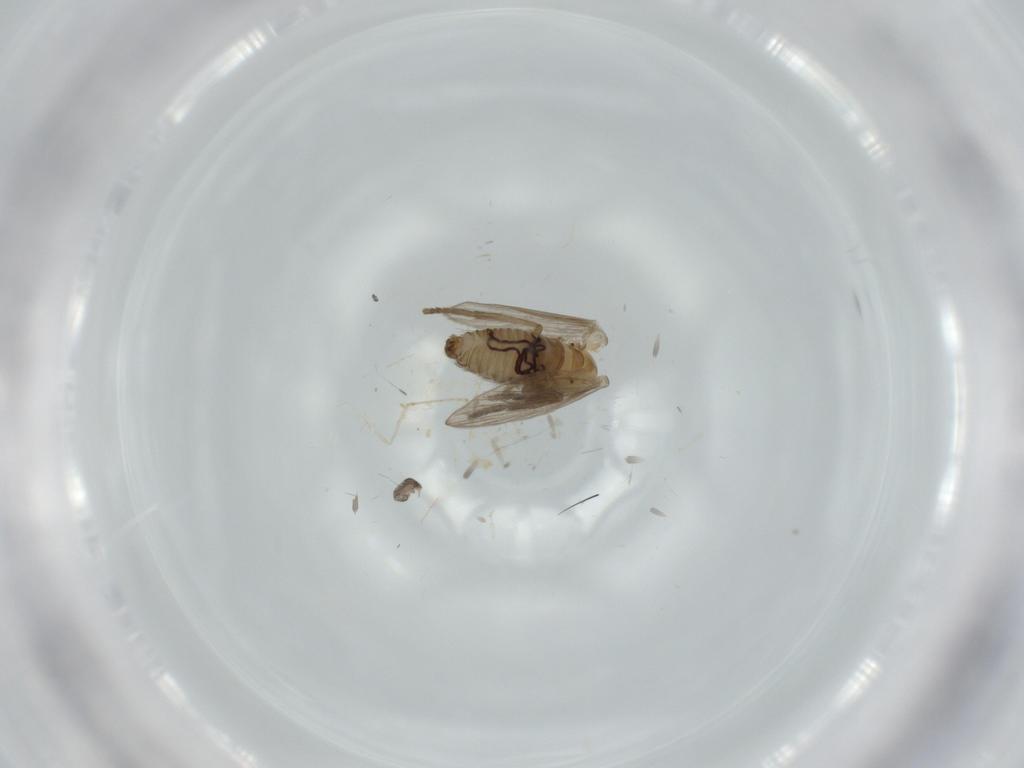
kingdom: Animalia
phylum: Arthropoda
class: Insecta
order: Diptera
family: Psychodidae
